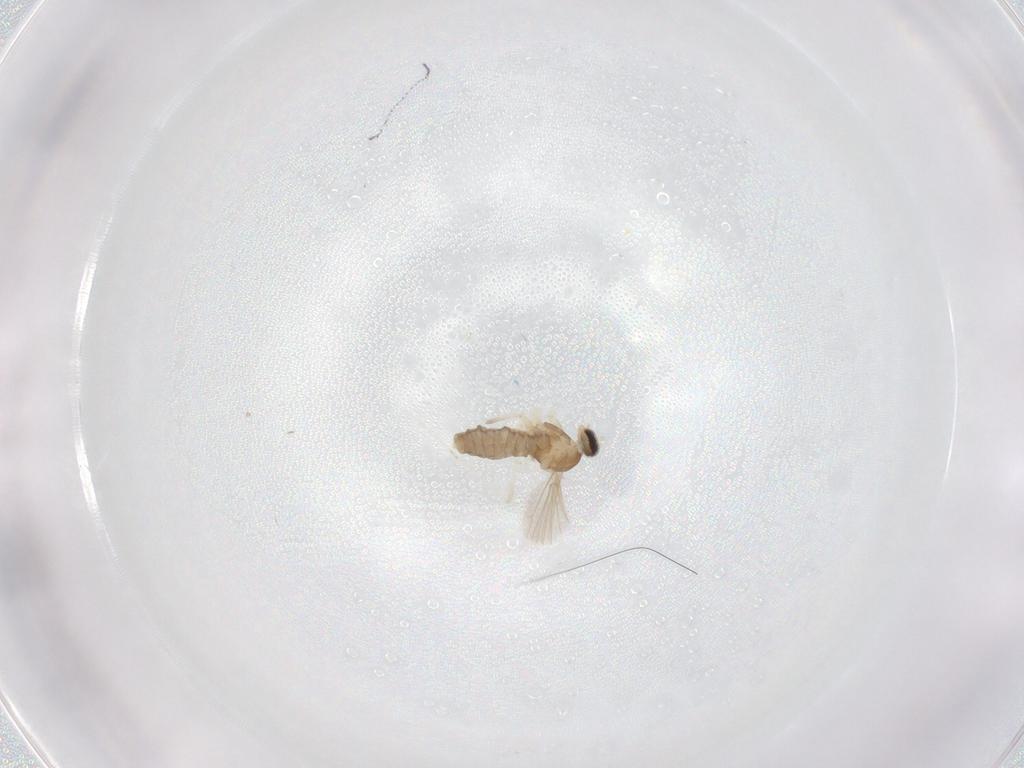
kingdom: Animalia
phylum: Arthropoda
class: Insecta
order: Diptera
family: Cecidomyiidae
